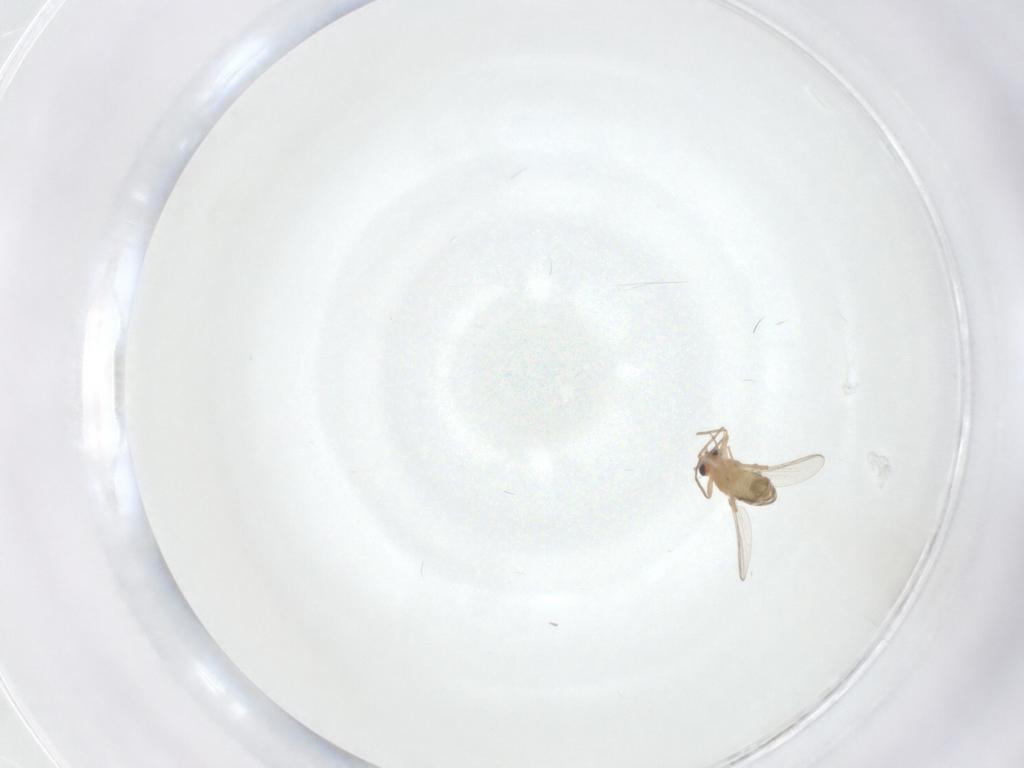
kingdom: Animalia
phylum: Arthropoda
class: Insecta
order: Diptera
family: Chironomidae
